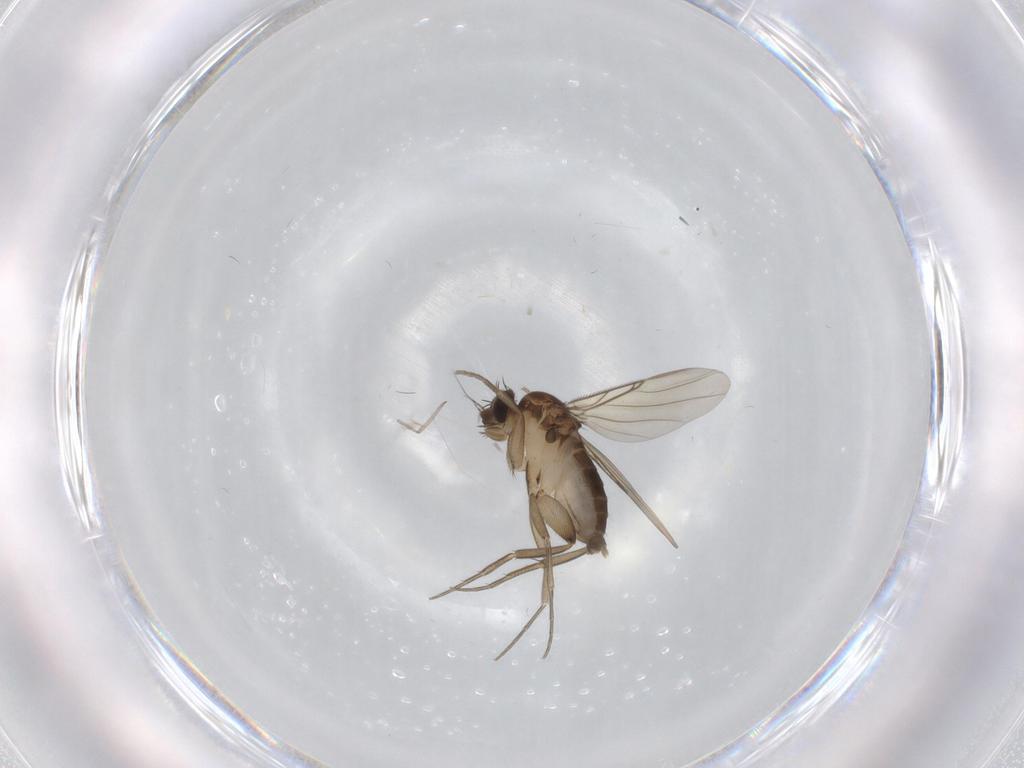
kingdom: Animalia
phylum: Arthropoda
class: Insecta
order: Diptera
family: Phoridae
